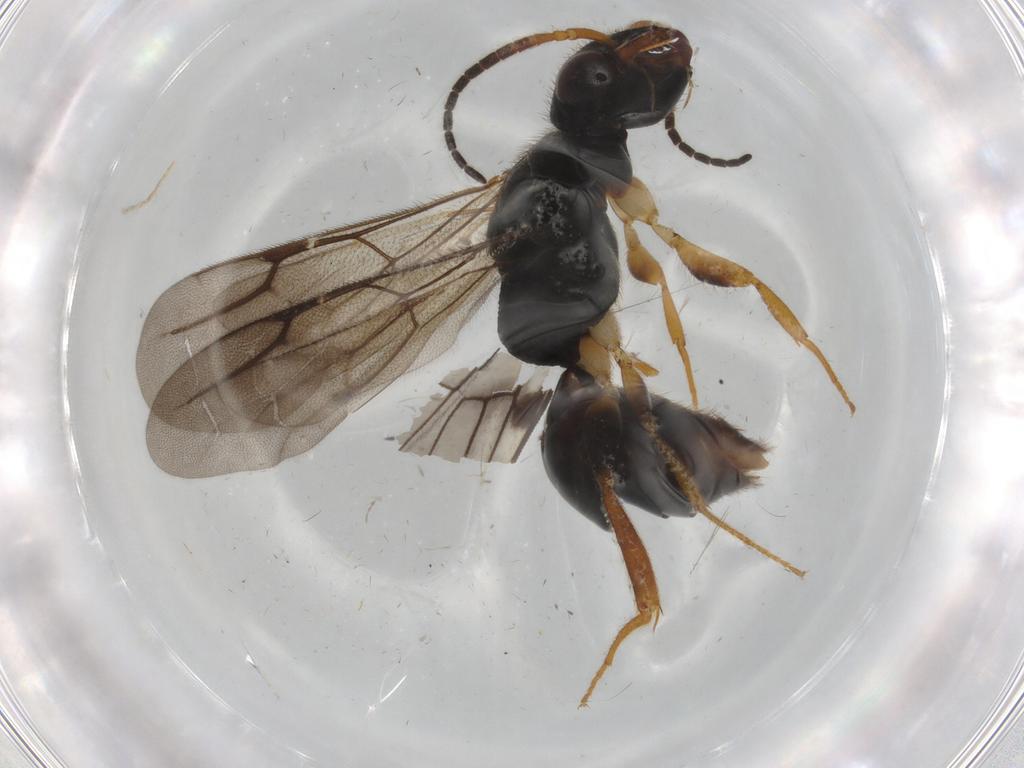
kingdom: Animalia
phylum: Arthropoda
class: Insecta
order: Hymenoptera
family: Bethylidae
